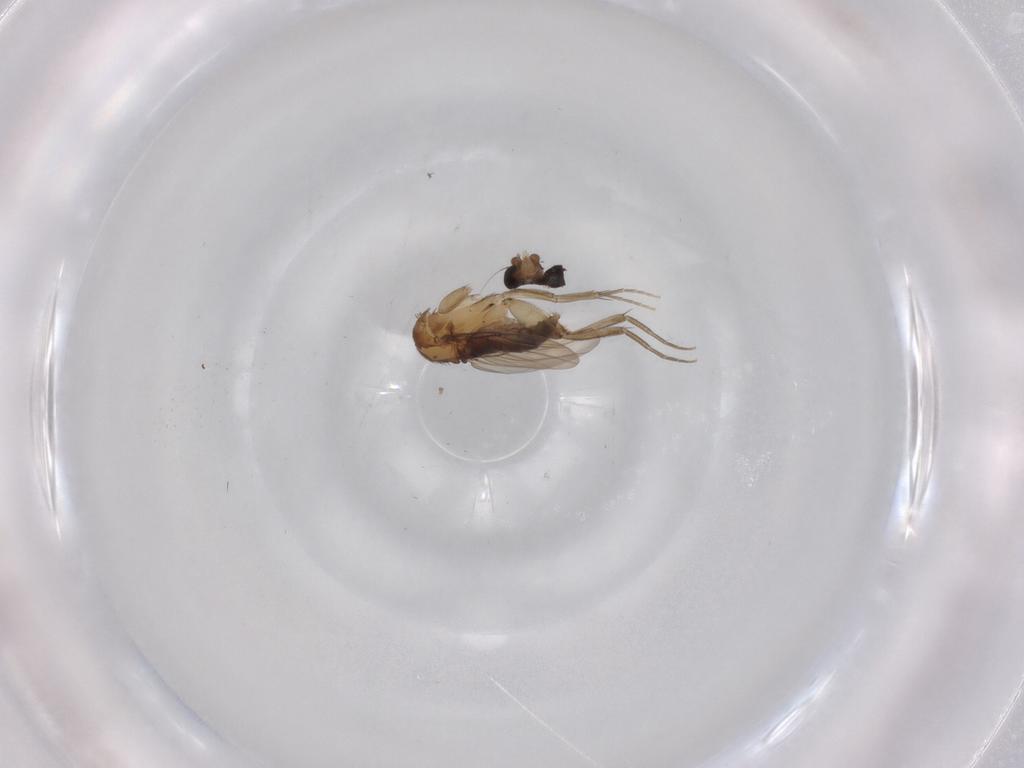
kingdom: Animalia
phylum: Arthropoda
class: Insecta
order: Diptera
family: Phoridae
